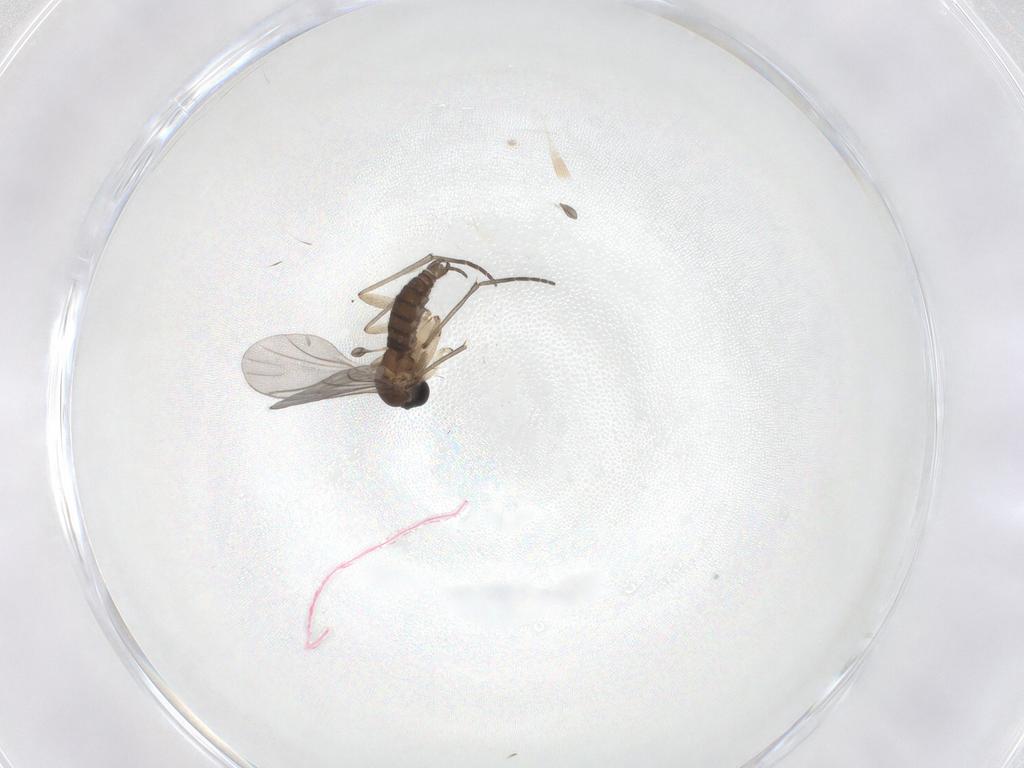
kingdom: Animalia
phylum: Arthropoda
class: Insecta
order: Diptera
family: Sciaridae
